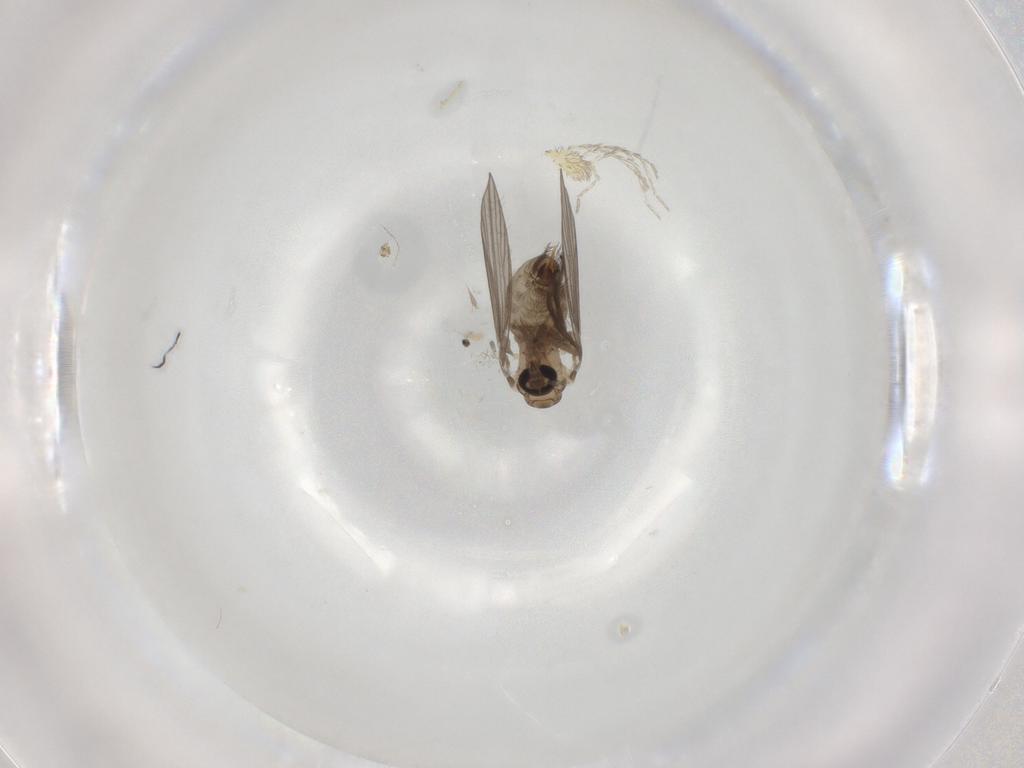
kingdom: Animalia
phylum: Arthropoda
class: Insecta
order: Diptera
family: Psychodidae
